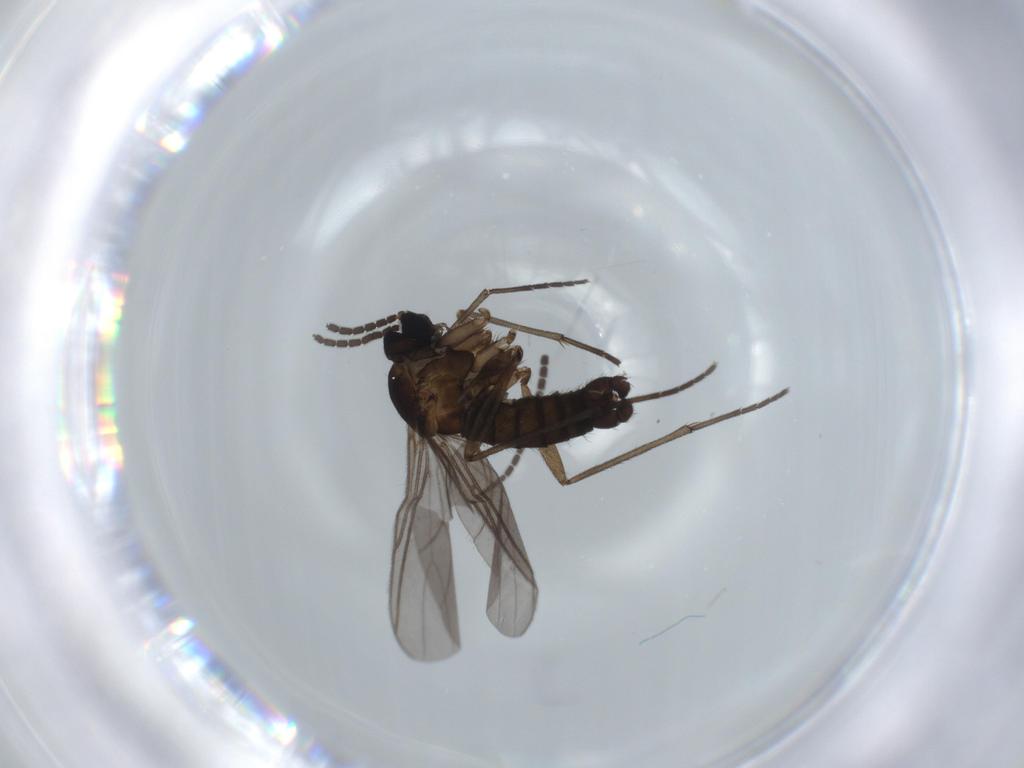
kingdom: Animalia
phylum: Arthropoda
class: Insecta
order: Diptera
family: Sciaridae
